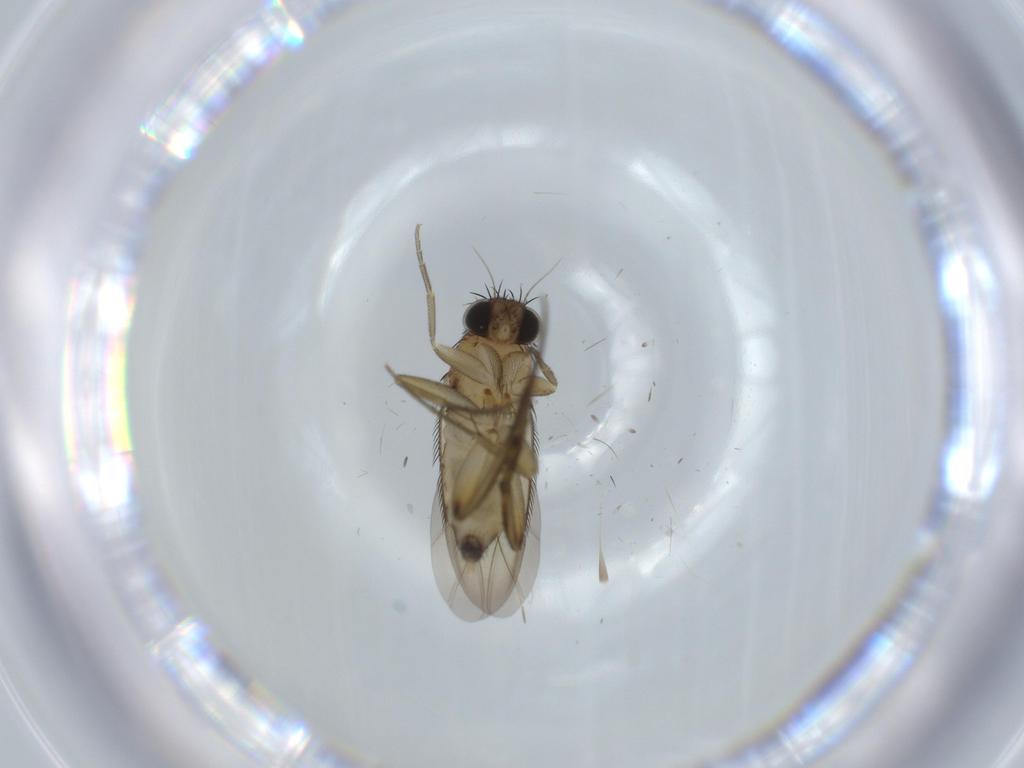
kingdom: Animalia
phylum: Arthropoda
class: Insecta
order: Diptera
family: Phoridae
